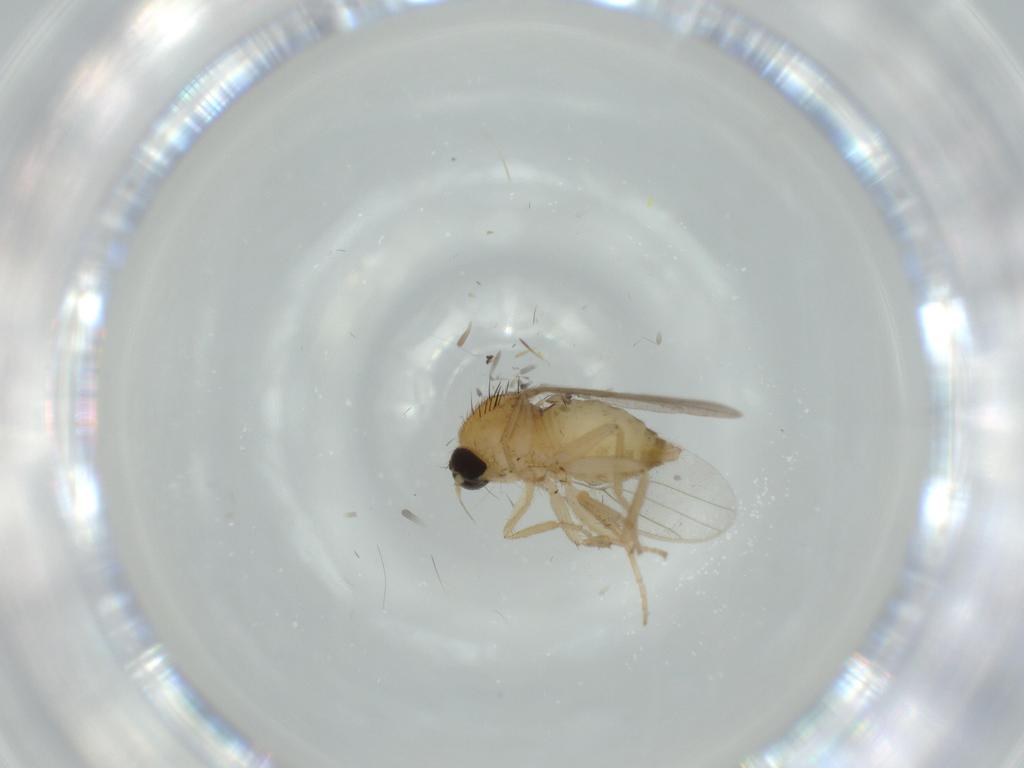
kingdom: Animalia
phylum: Arthropoda
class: Insecta
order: Diptera
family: Hybotidae
